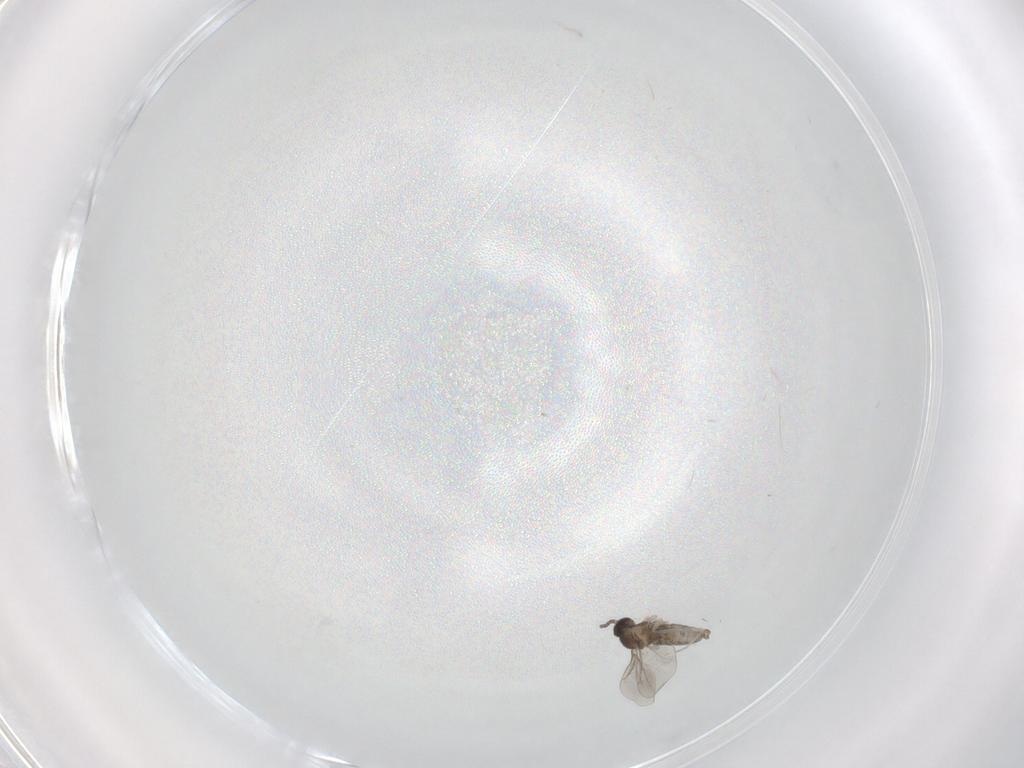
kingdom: Animalia
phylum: Arthropoda
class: Insecta
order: Diptera
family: Cecidomyiidae
